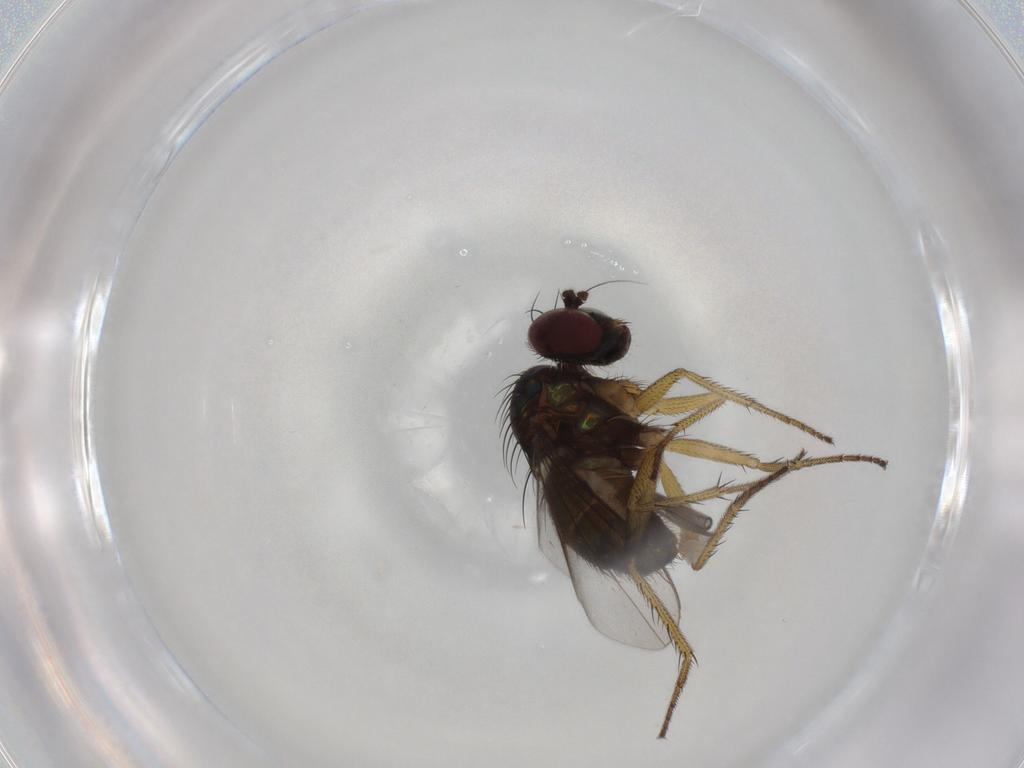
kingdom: Animalia
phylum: Arthropoda
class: Insecta
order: Diptera
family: Dolichopodidae
